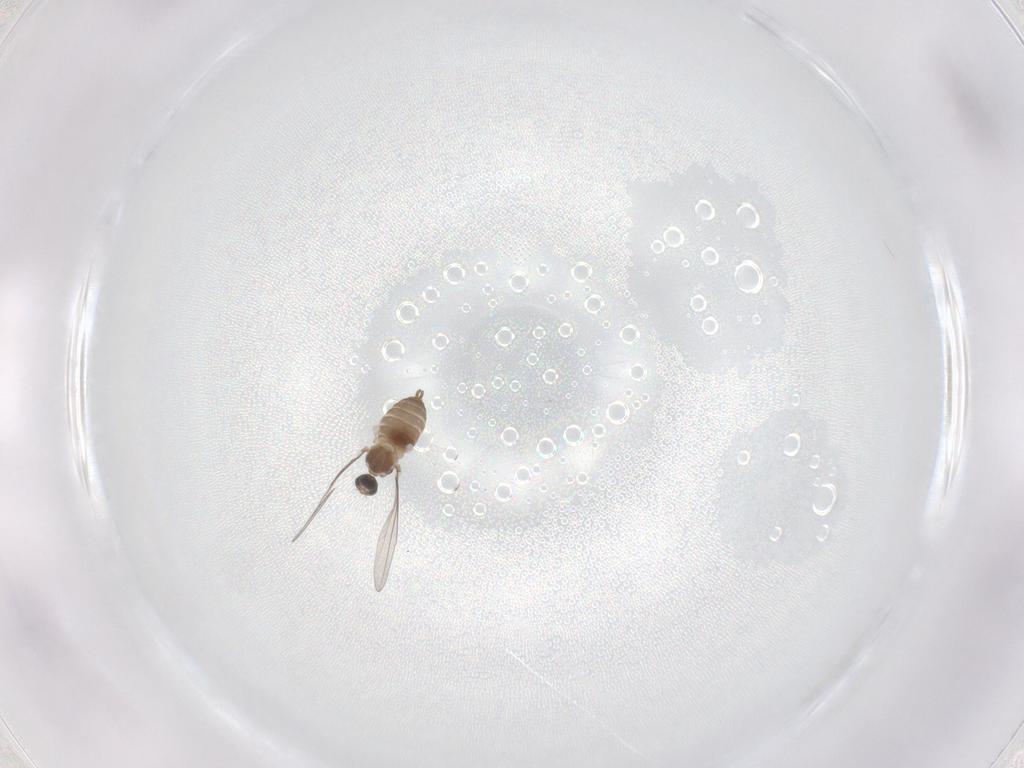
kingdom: Animalia
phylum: Arthropoda
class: Insecta
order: Diptera
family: Cecidomyiidae
